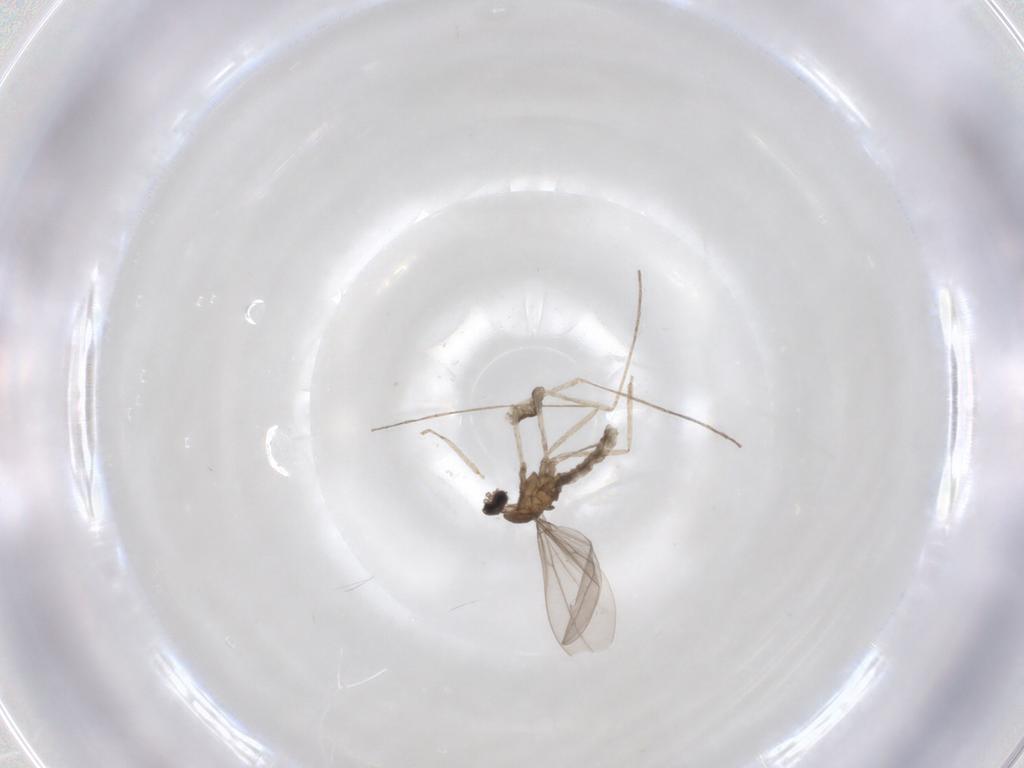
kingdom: Animalia
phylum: Arthropoda
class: Insecta
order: Diptera
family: Cecidomyiidae
